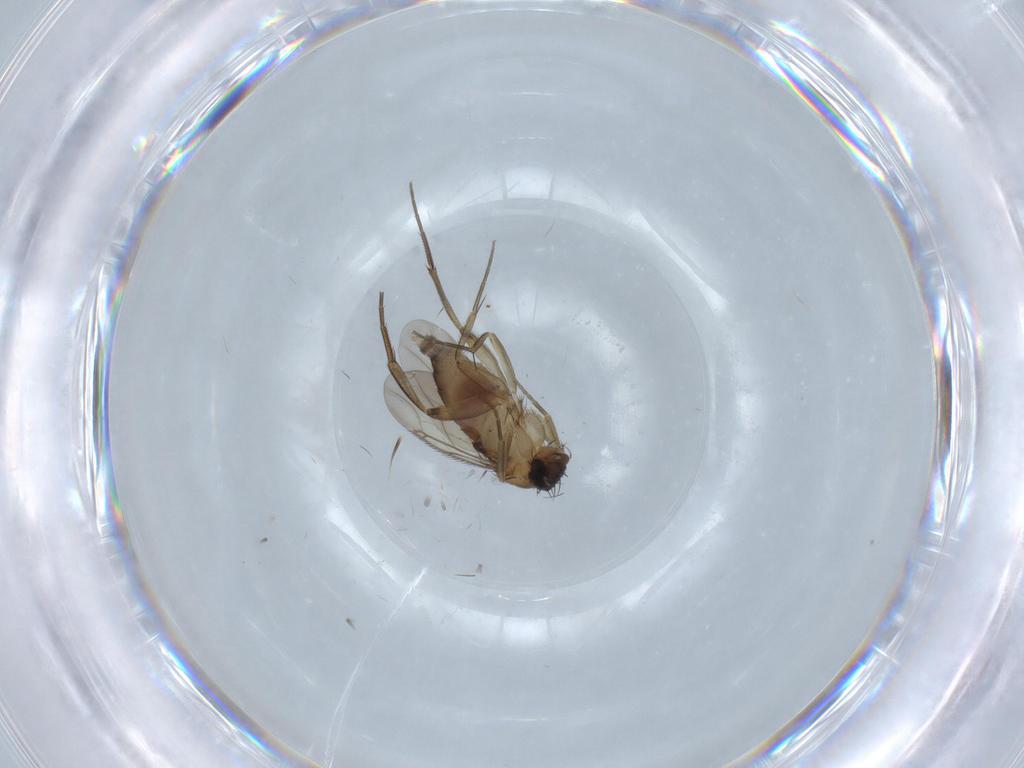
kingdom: Animalia
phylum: Arthropoda
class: Insecta
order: Diptera
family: Phoridae
